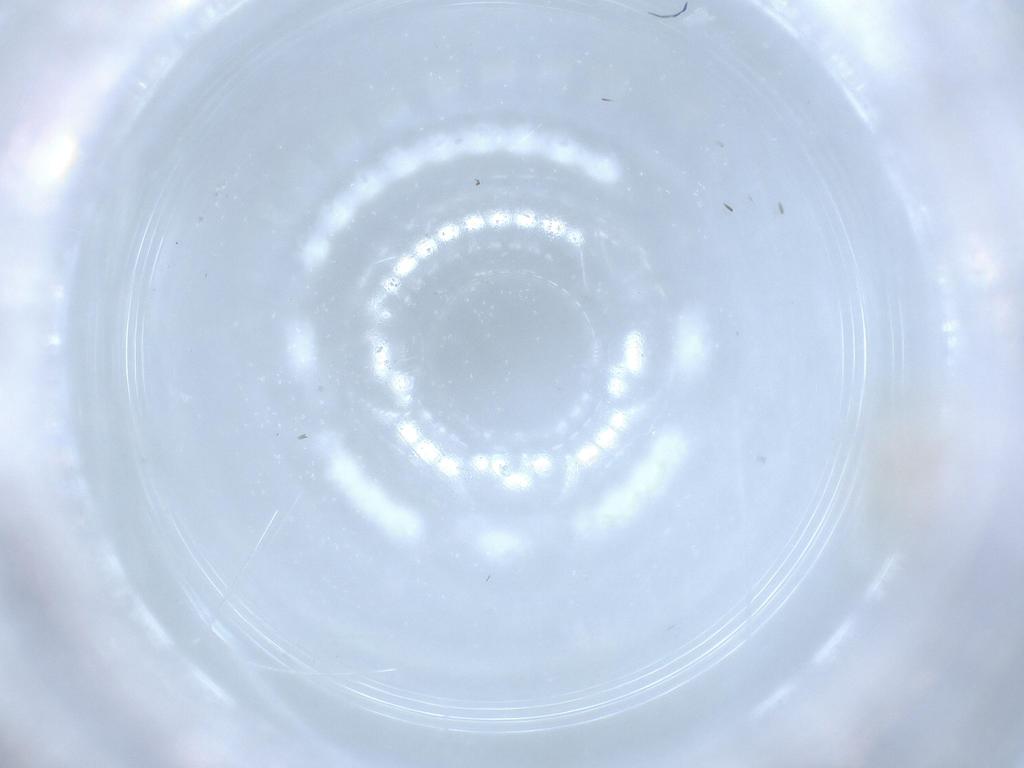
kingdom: Animalia
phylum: Arthropoda
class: Insecta
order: Hemiptera
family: Acanaloniidae
